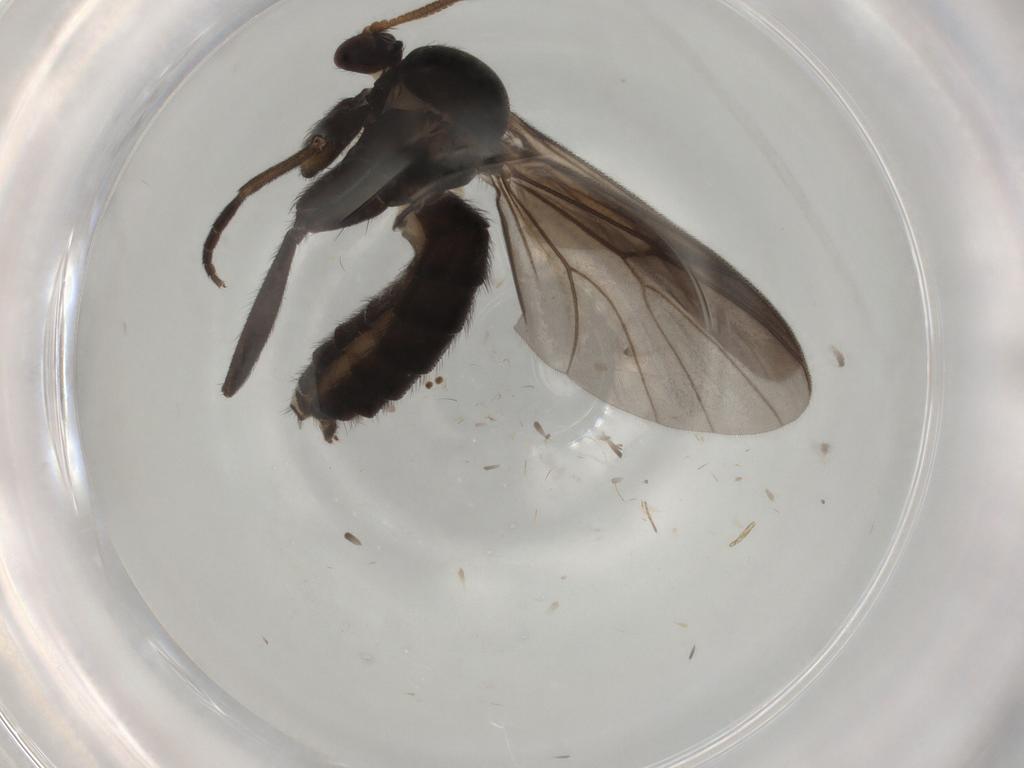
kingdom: Animalia
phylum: Arthropoda
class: Insecta
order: Diptera
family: Mycetophilidae
